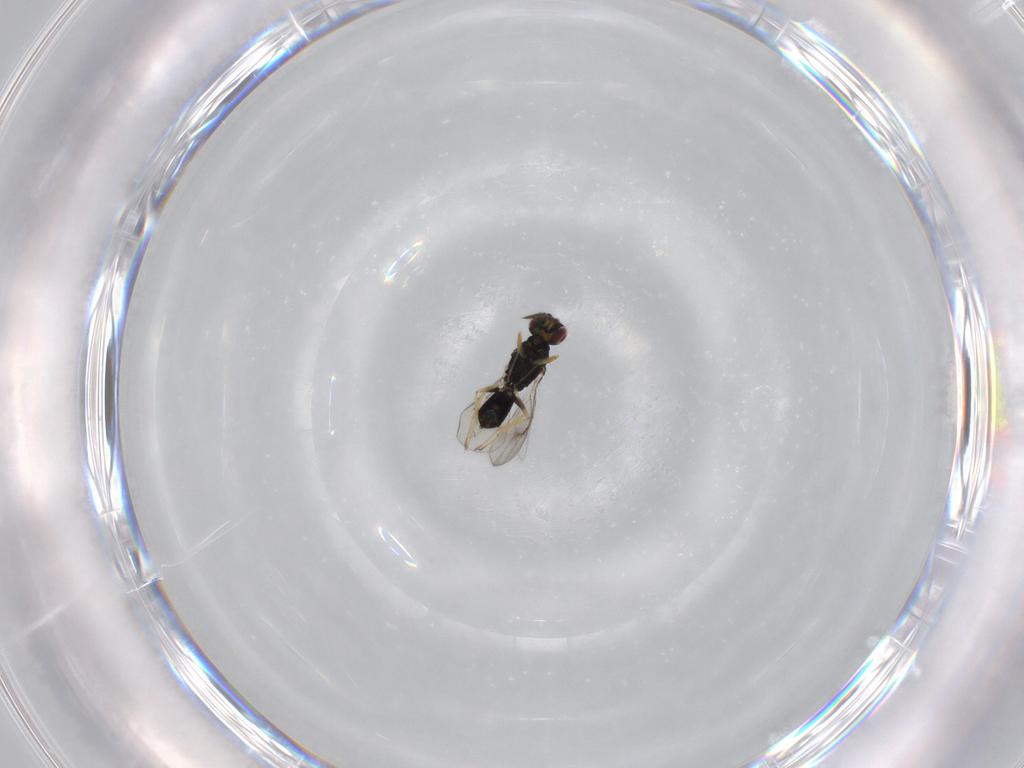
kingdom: Animalia
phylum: Arthropoda
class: Insecta
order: Hymenoptera
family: Eulophidae
